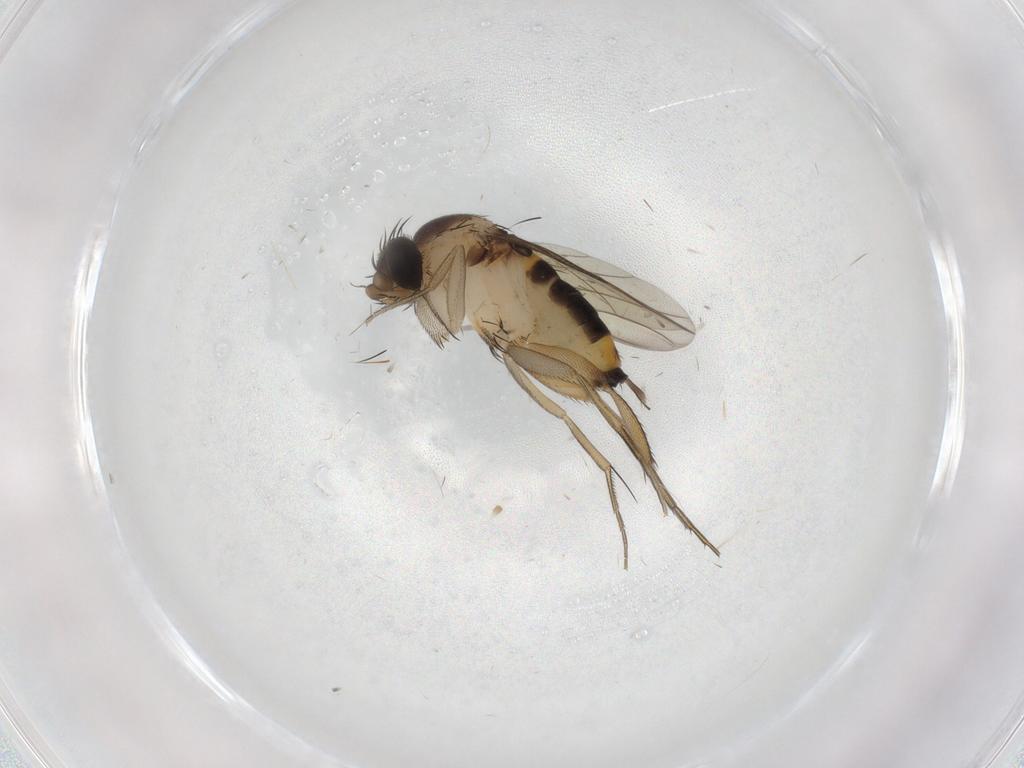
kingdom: Animalia
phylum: Arthropoda
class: Insecta
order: Diptera
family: Phoridae
